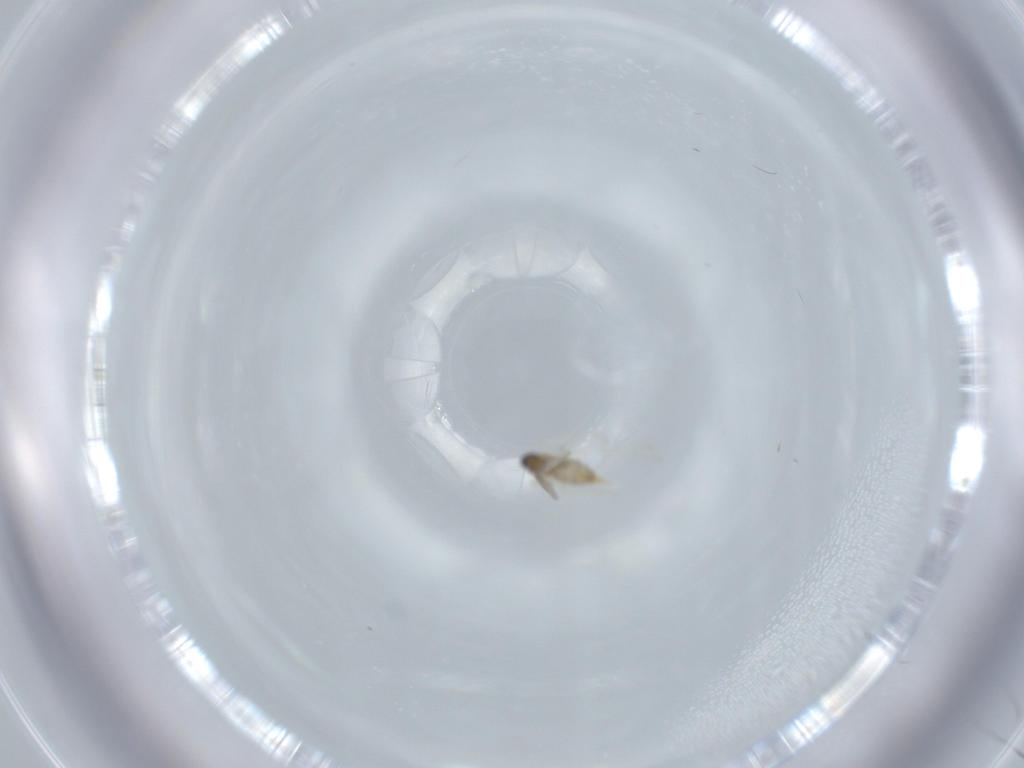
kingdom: Animalia
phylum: Arthropoda
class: Insecta
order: Diptera
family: Cecidomyiidae
